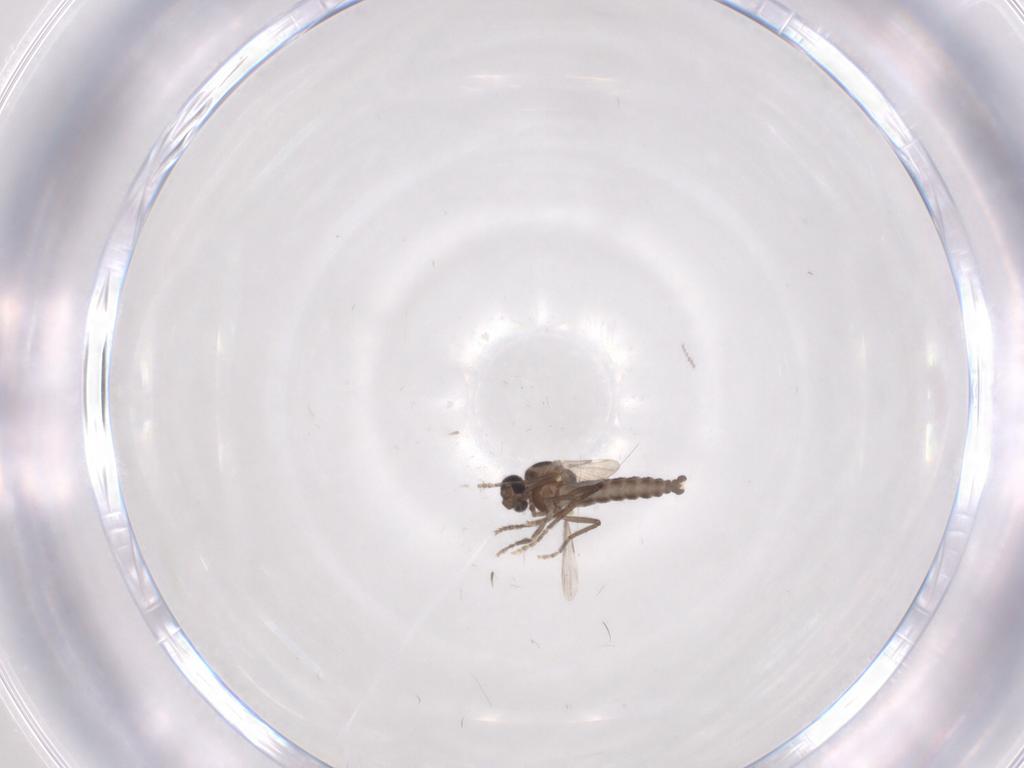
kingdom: Animalia
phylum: Arthropoda
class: Insecta
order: Diptera
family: Ceratopogonidae
